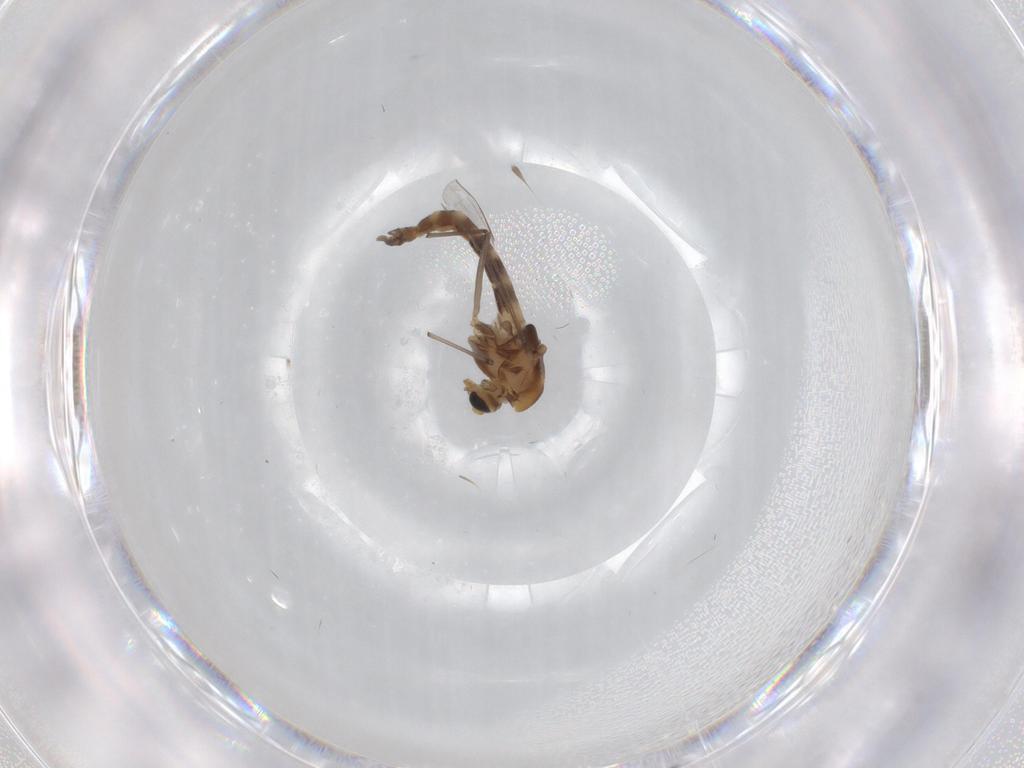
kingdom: Animalia
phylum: Arthropoda
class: Insecta
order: Diptera
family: Chironomidae
